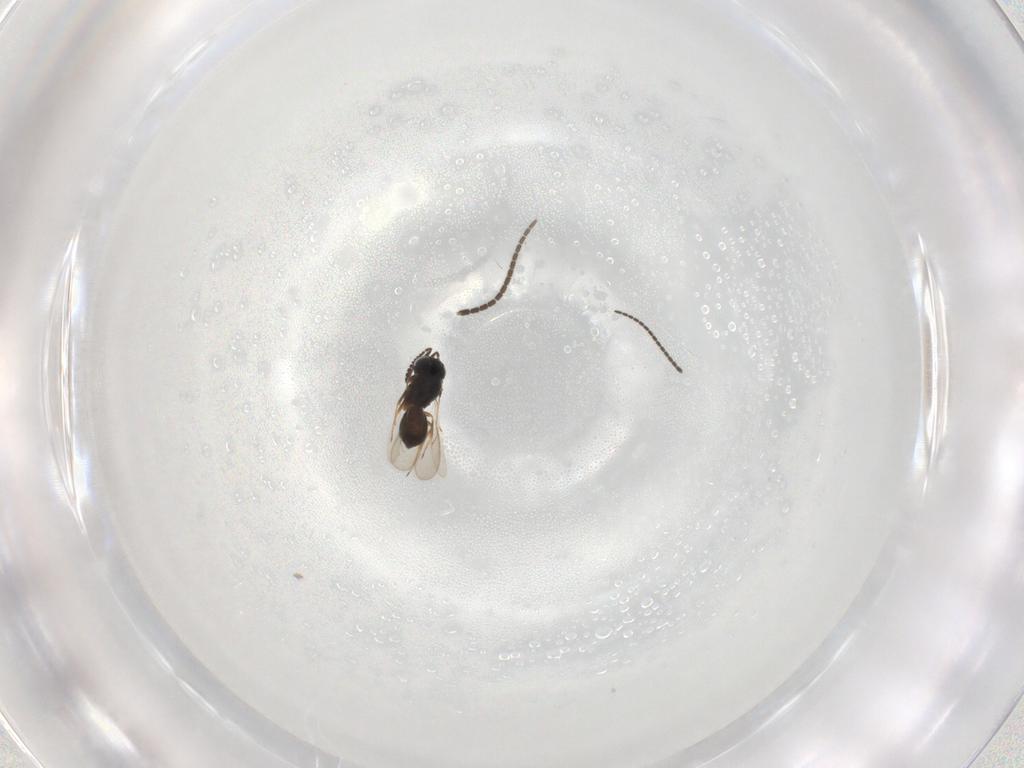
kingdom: Animalia
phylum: Arthropoda
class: Insecta
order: Hymenoptera
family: Scelionidae
